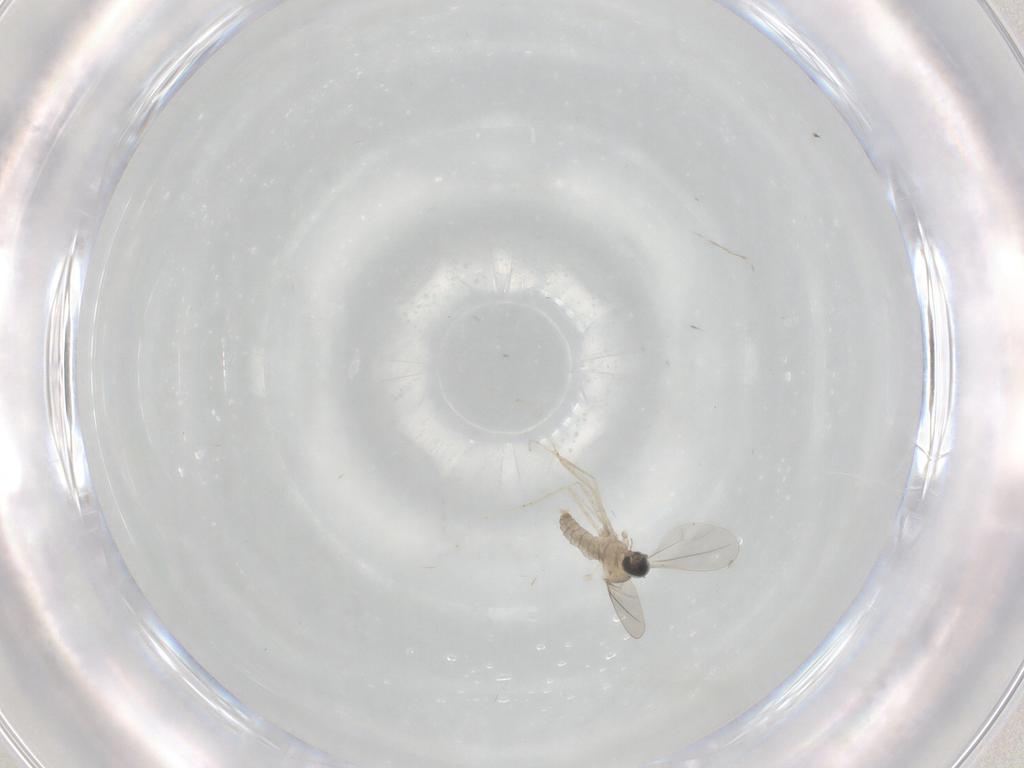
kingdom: Animalia
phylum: Arthropoda
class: Insecta
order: Diptera
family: Cecidomyiidae
